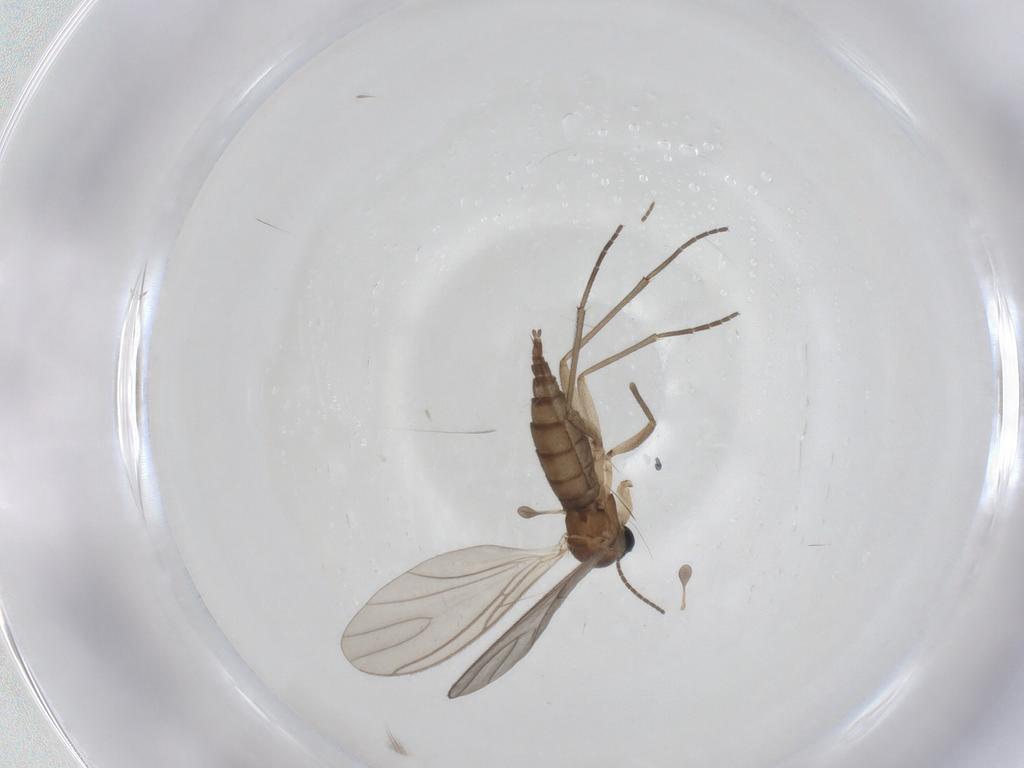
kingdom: Animalia
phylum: Arthropoda
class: Insecta
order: Diptera
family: Sciaridae
